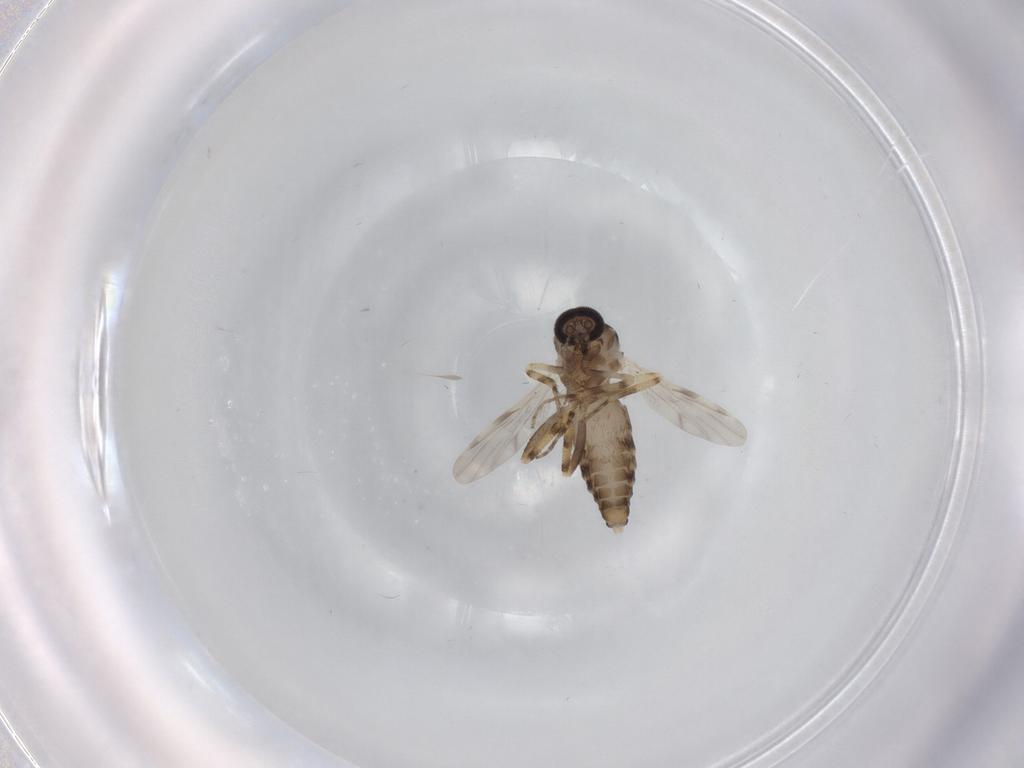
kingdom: Animalia
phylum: Arthropoda
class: Insecta
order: Diptera
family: Ceratopogonidae
